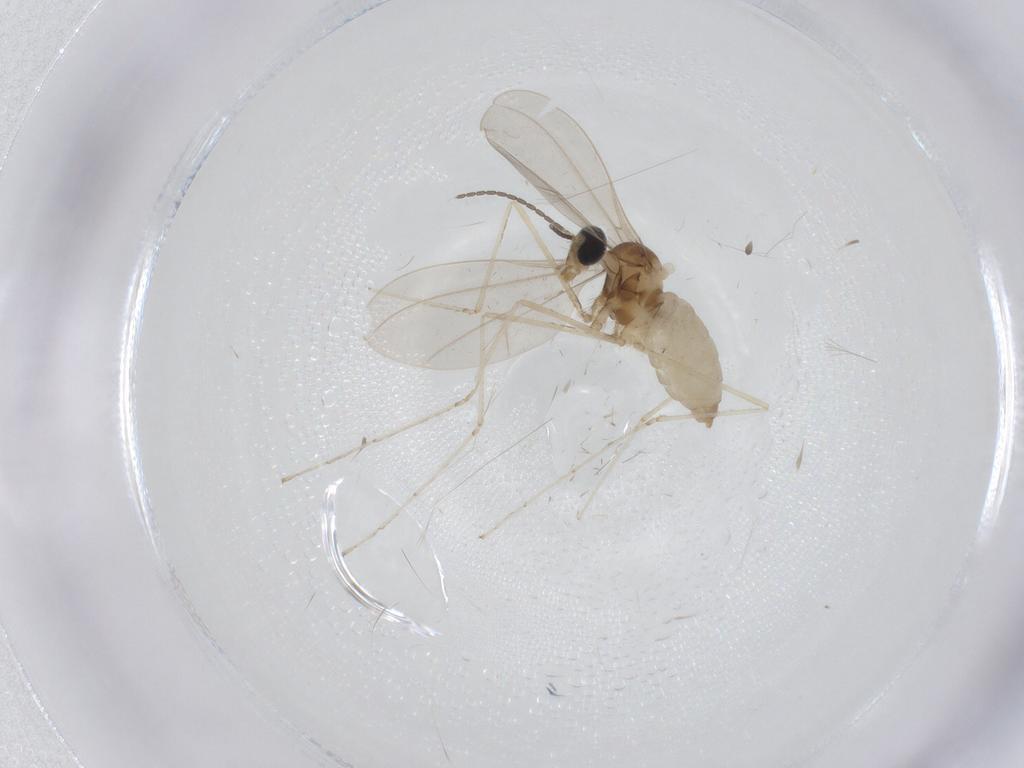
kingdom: Animalia
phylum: Arthropoda
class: Insecta
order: Diptera
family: Cecidomyiidae
